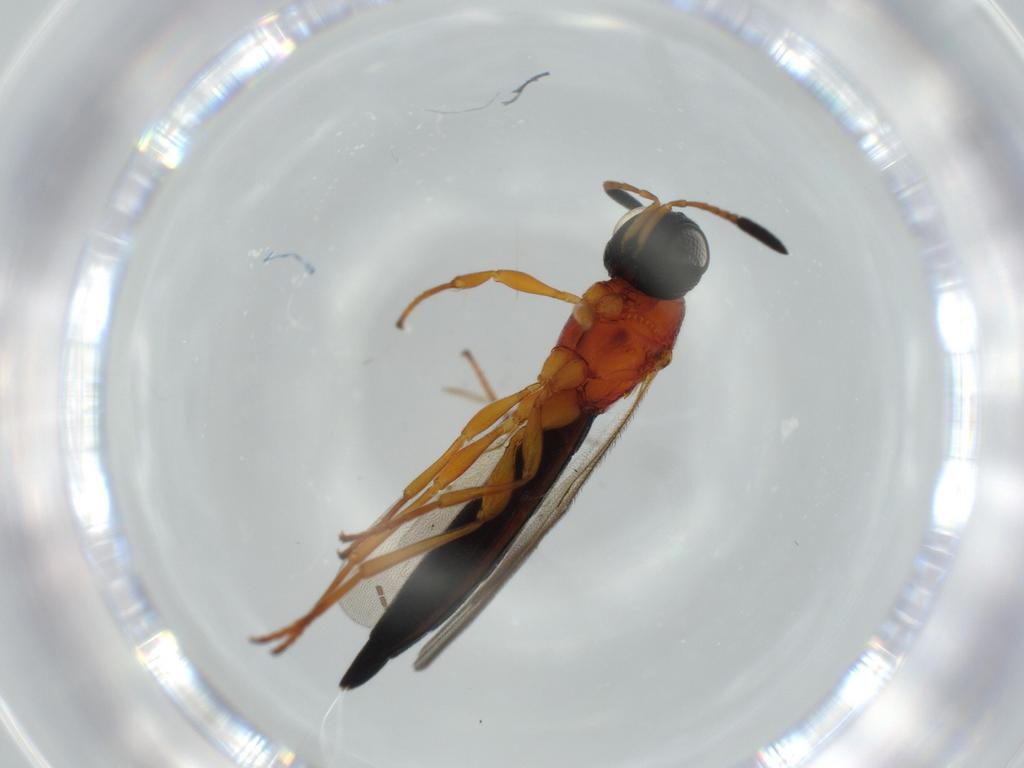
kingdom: Animalia
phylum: Arthropoda
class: Insecta
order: Hymenoptera
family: Scelionidae
